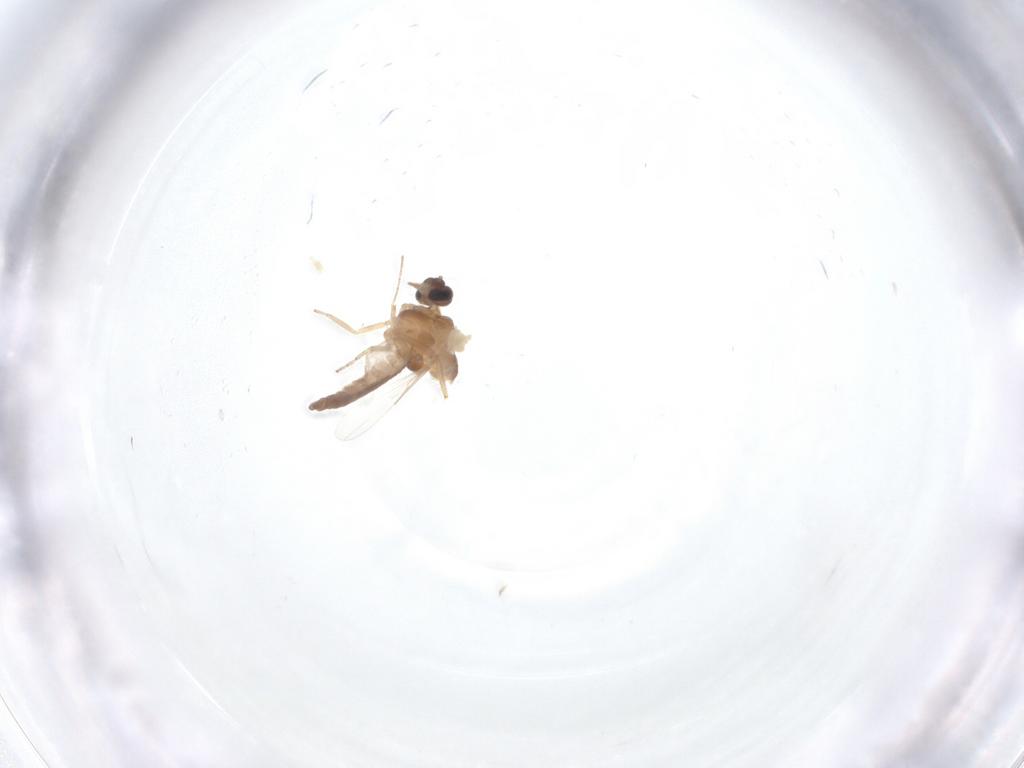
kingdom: Animalia
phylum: Arthropoda
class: Insecta
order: Diptera
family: Ceratopogonidae
